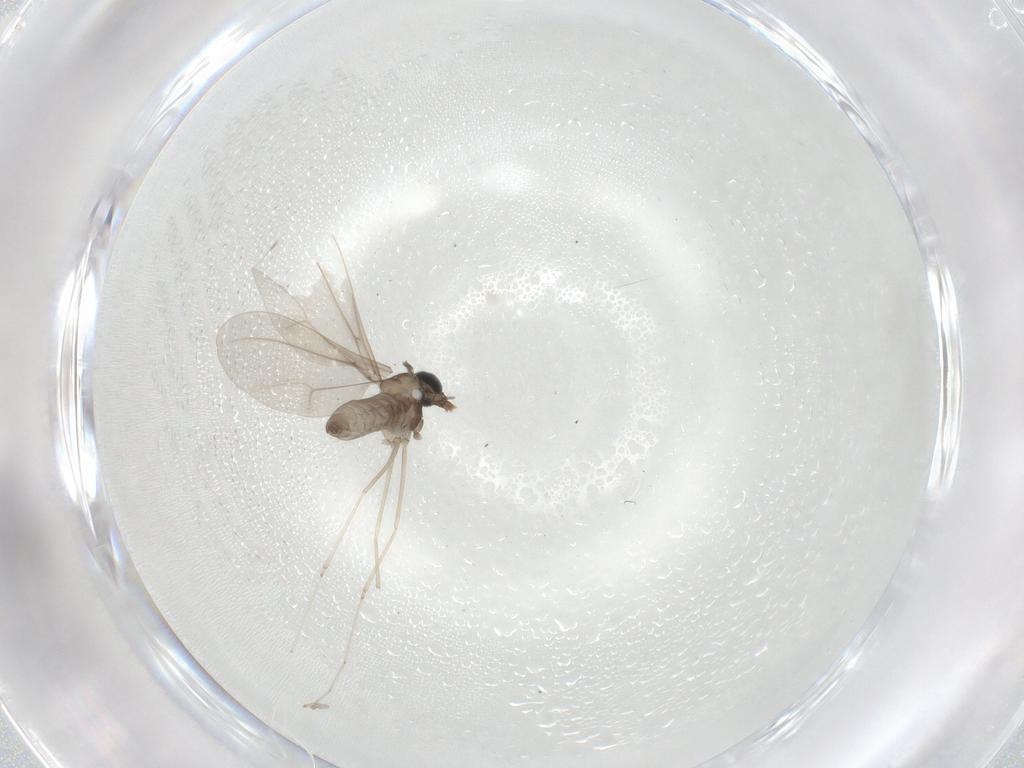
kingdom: Animalia
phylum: Arthropoda
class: Insecta
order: Diptera
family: Cecidomyiidae
